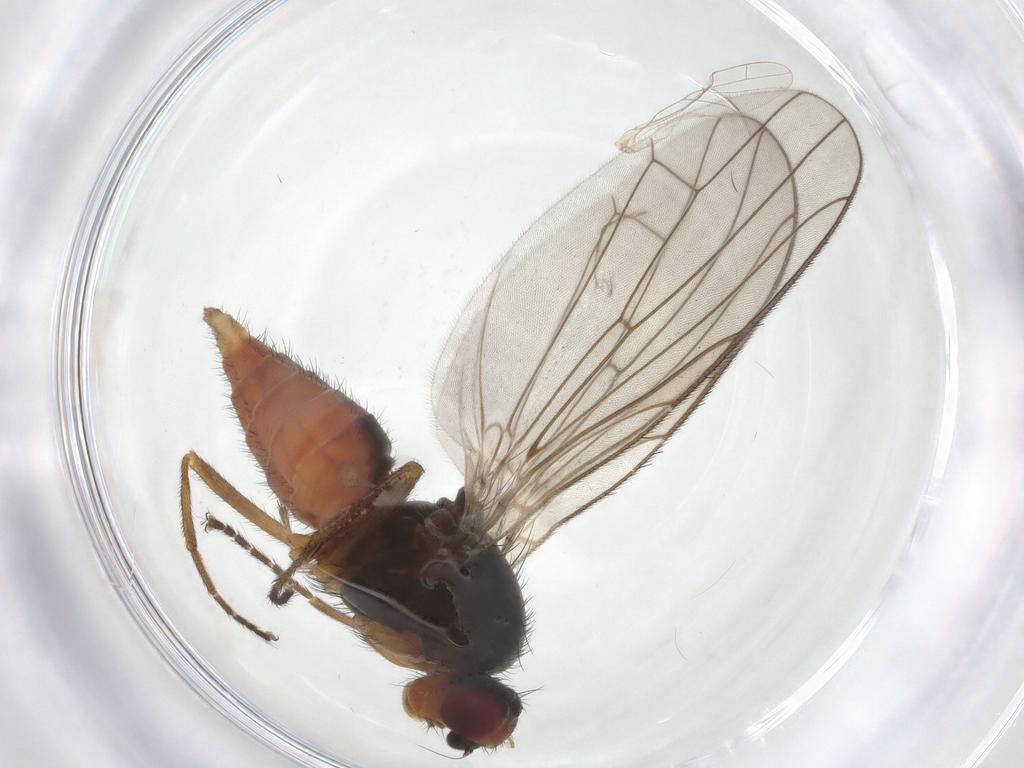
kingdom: Animalia
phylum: Arthropoda
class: Insecta
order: Diptera
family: Heleomyzidae
